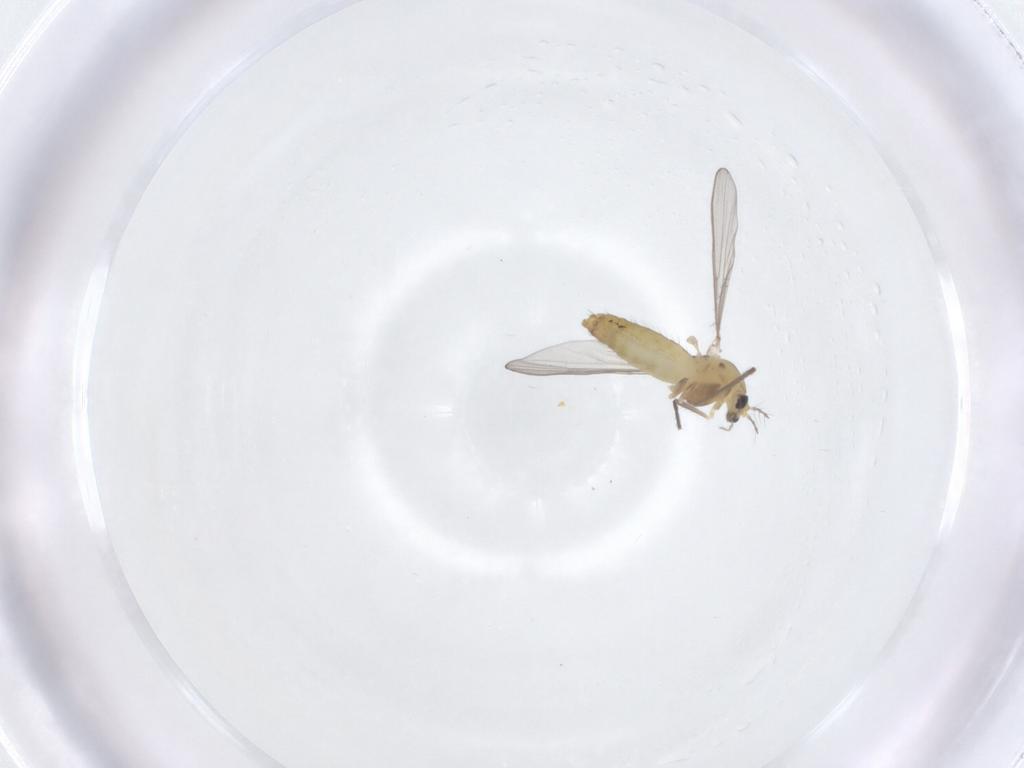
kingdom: Animalia
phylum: Arthropoda
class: Insecta
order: Diptera
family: Chironomidae
